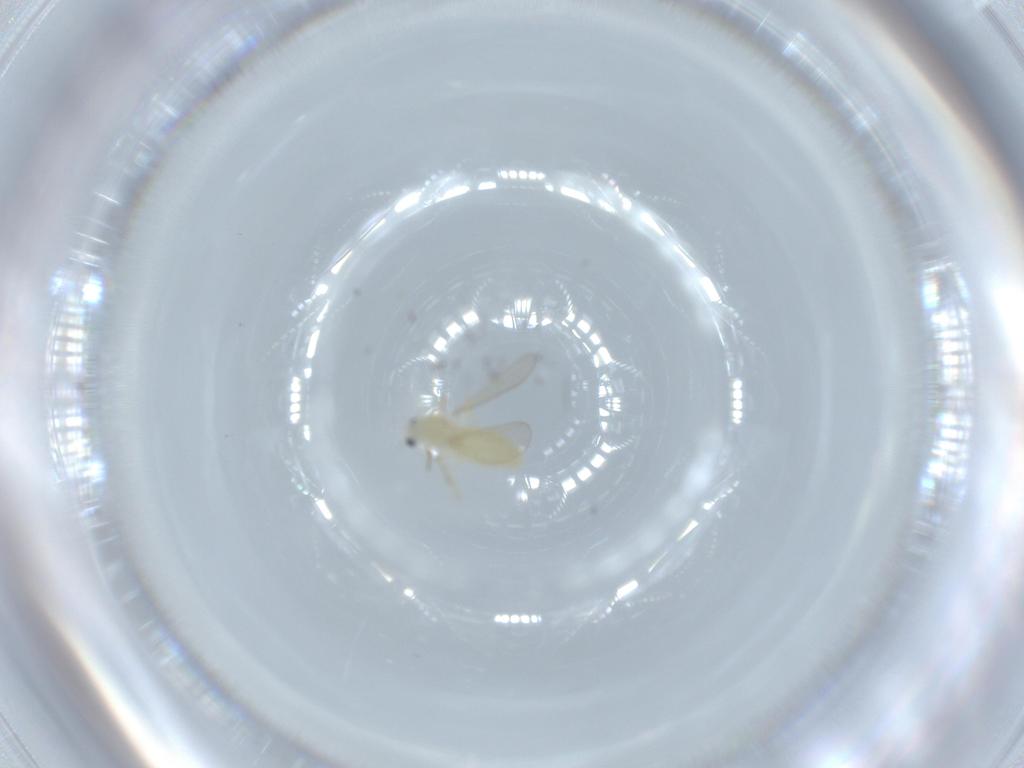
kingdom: Animalia
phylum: Arthropoda
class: Insecta
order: Diptera
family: Chironomidae
